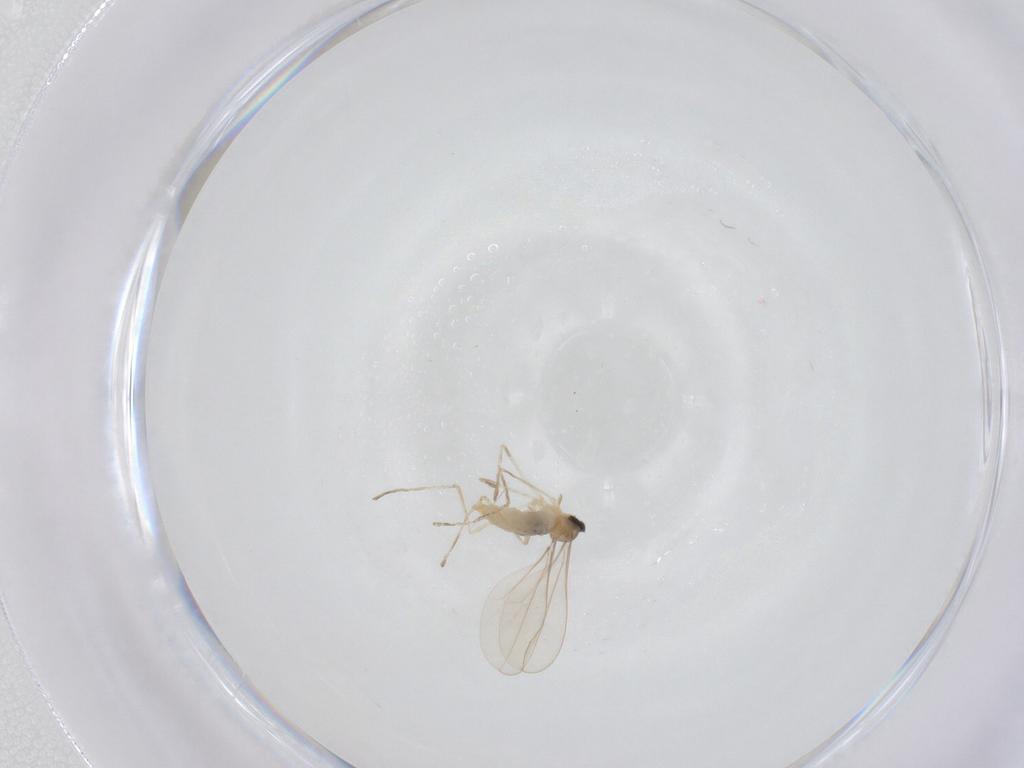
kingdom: Animalia
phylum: Arthropoda
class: Insecta
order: Diptera
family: Cecidomyiidae
